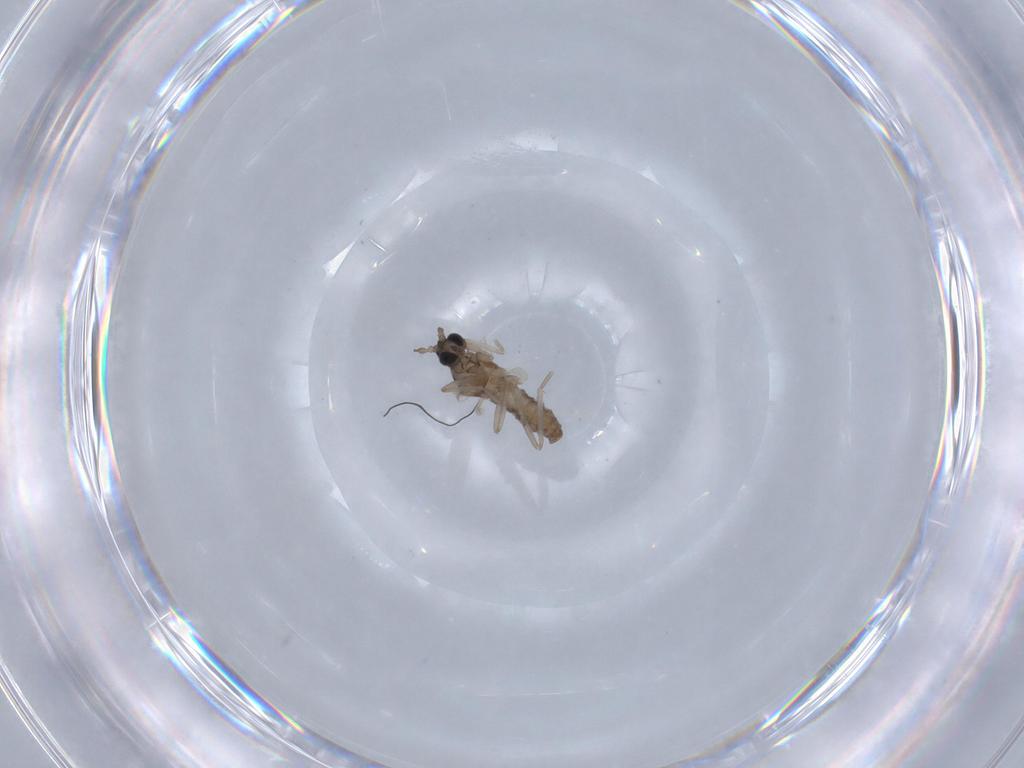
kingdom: Animalia
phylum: Arthropoda
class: Insecta
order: Diptera
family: Cecidomyiidae
